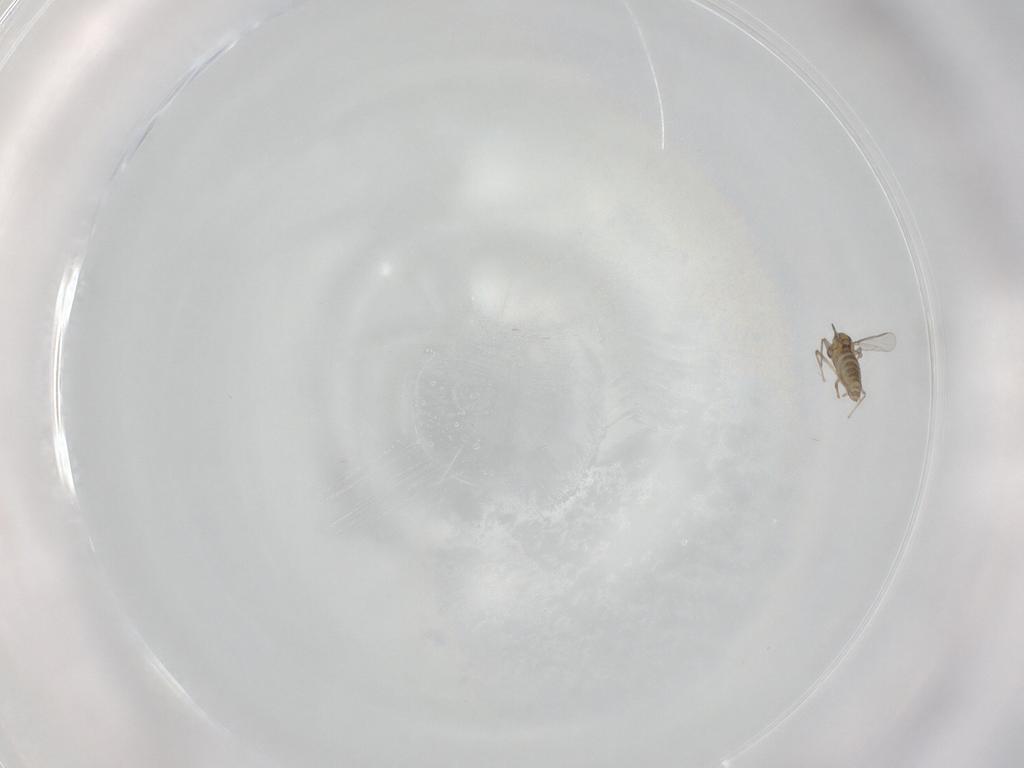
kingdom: Animalia
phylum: Arthropoda
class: Insecta
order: Diptera
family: Chironomidae
